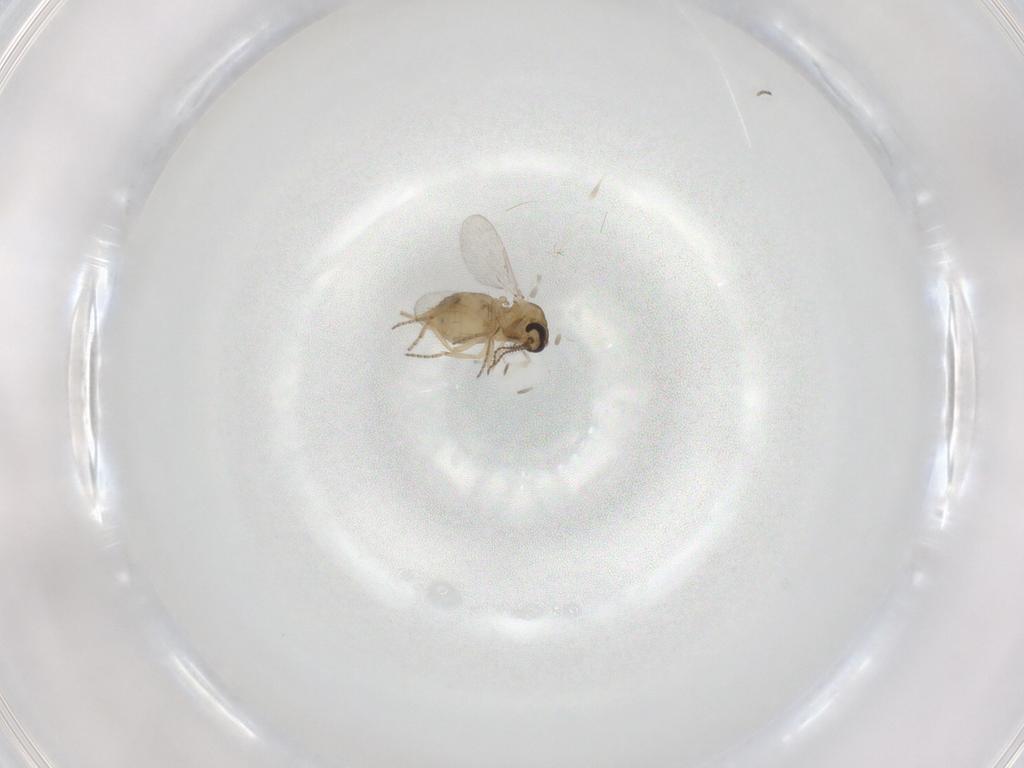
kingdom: Animalia
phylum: Arthropoda
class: Insecta
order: Diptera
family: Ceratopogonidae
